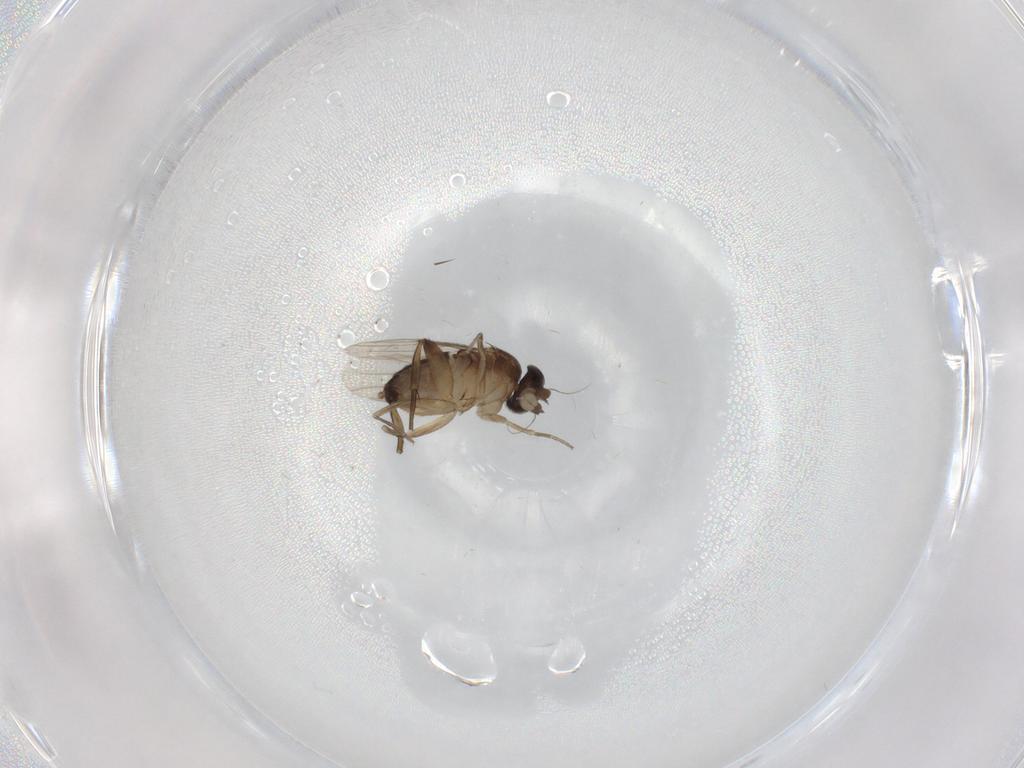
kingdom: Animalia
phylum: Arthropoda
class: Insecta
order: Diptera
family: Phoridae
